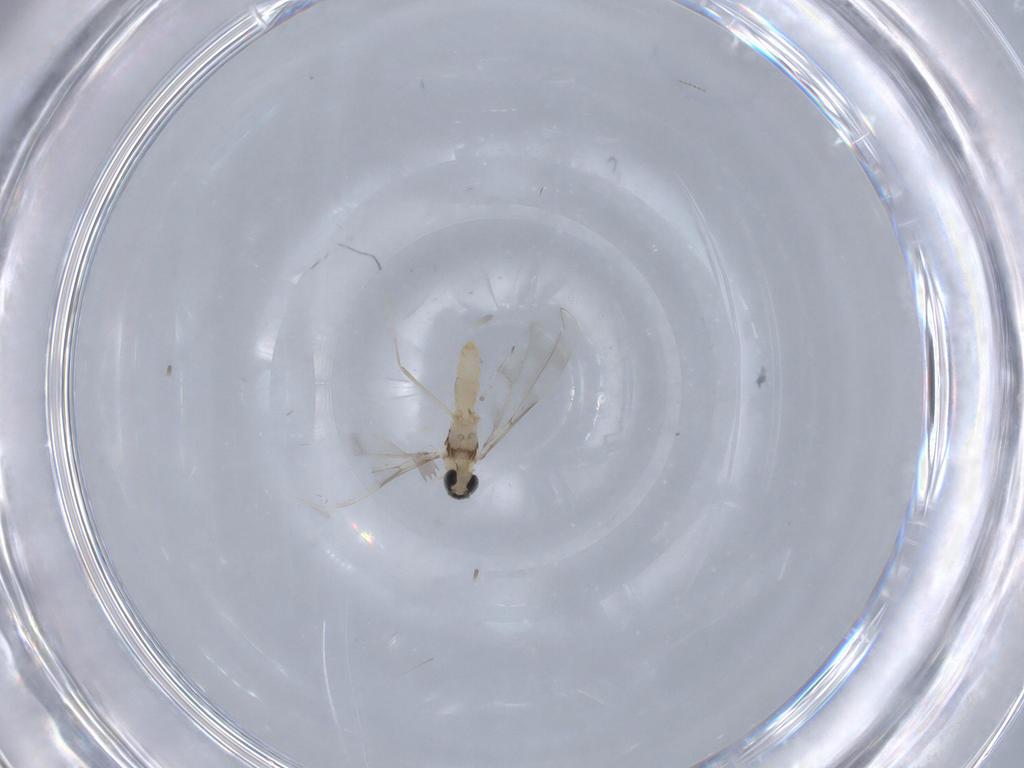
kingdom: Animalia
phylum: Arthropoda
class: Insecta
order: Diptera
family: Cecidomyiidae
